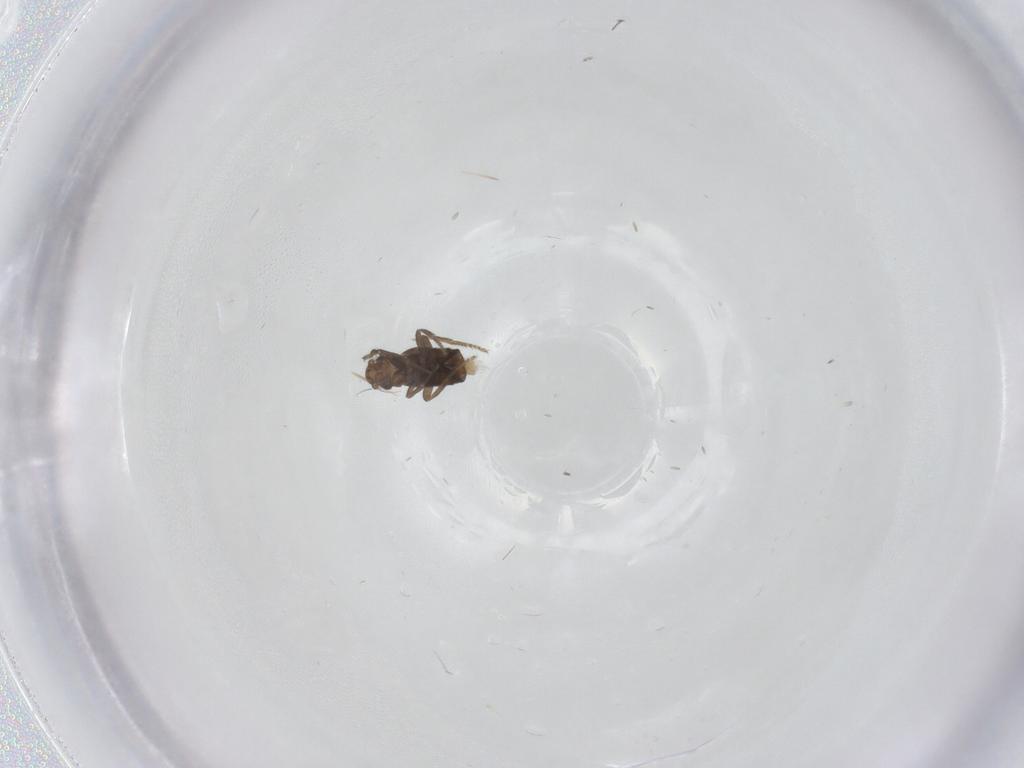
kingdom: Animalia
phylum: Arthropoda
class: Insecta
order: Diptera
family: Phoridae
